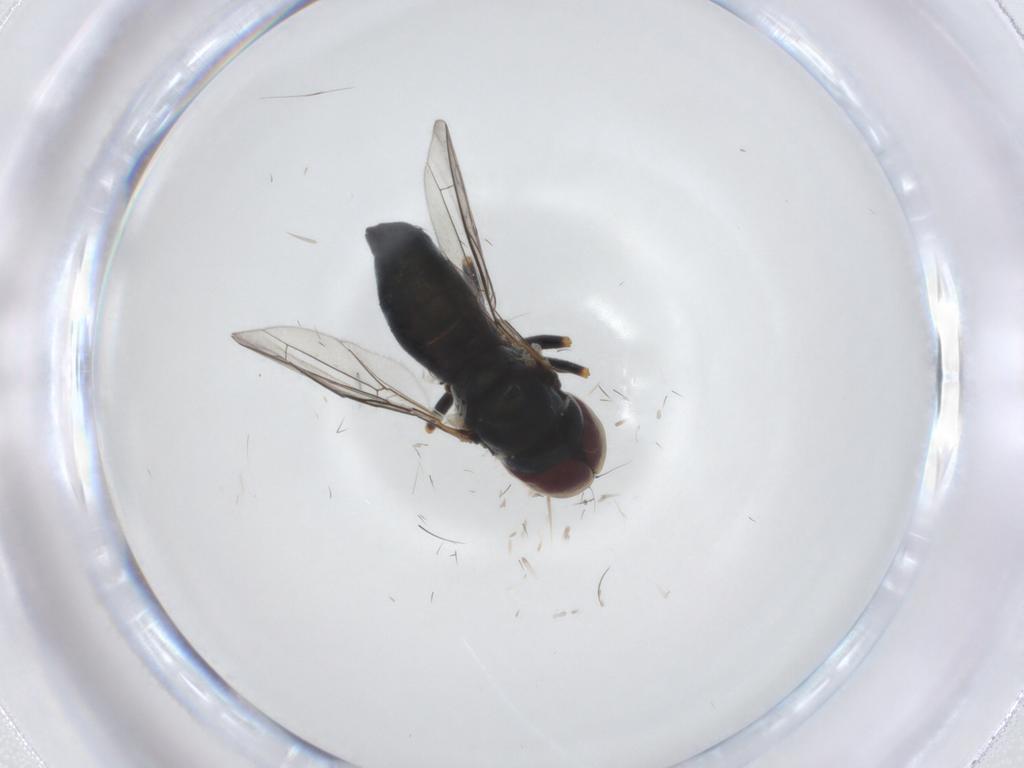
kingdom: Animalia
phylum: Arthropoda
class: Insecta
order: Diptera
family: Pipunculidae
